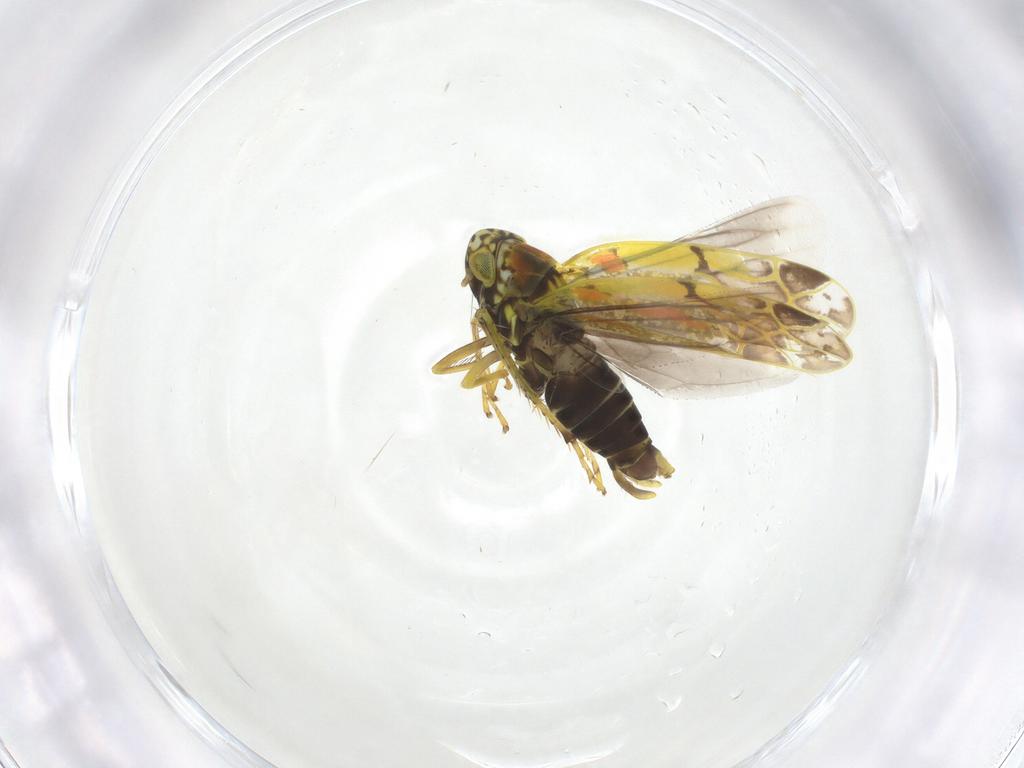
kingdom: Animalia
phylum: Arthropoda
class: Insecta
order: Hemiptera
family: Cicadellidae
